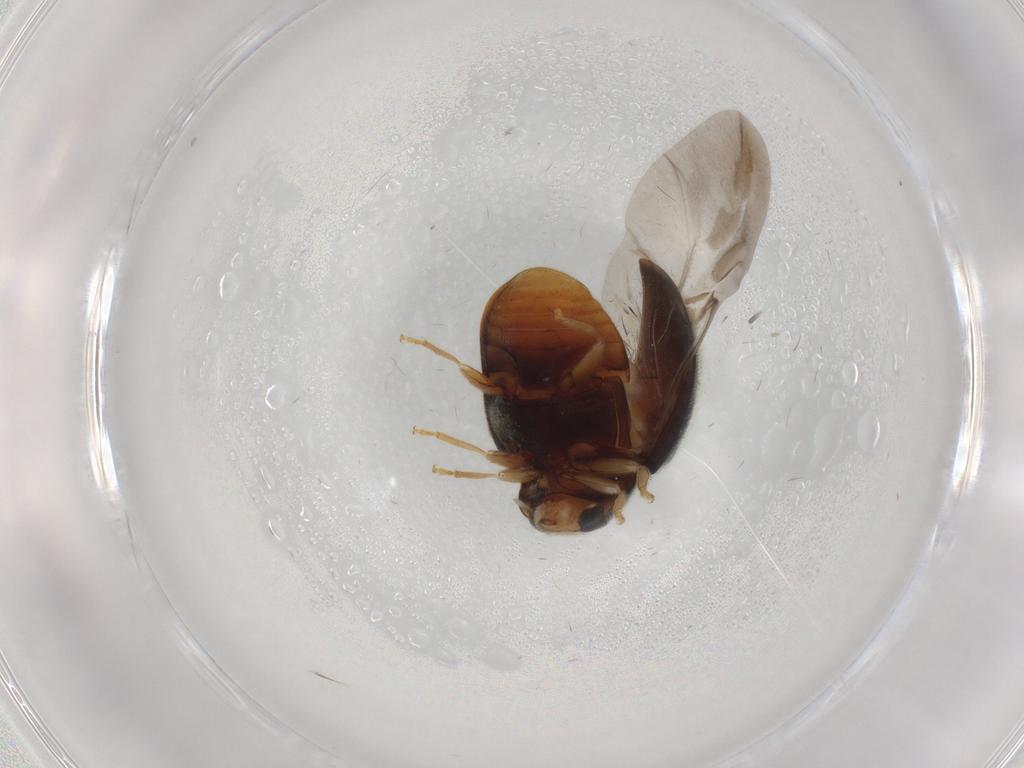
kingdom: Animalia
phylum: Arthropoda
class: Insecta
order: Coleoptera
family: Coccinellidae
